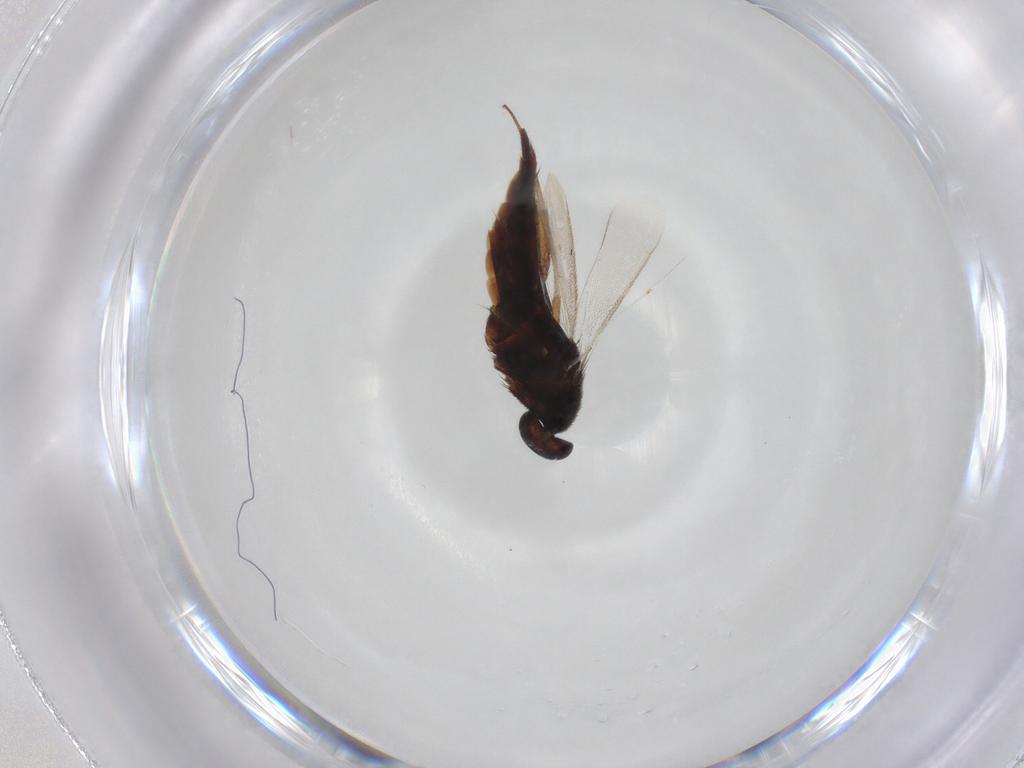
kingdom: Animalia
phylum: Arthropoda
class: Insecta
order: Hymenoptera
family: Eulophidae
